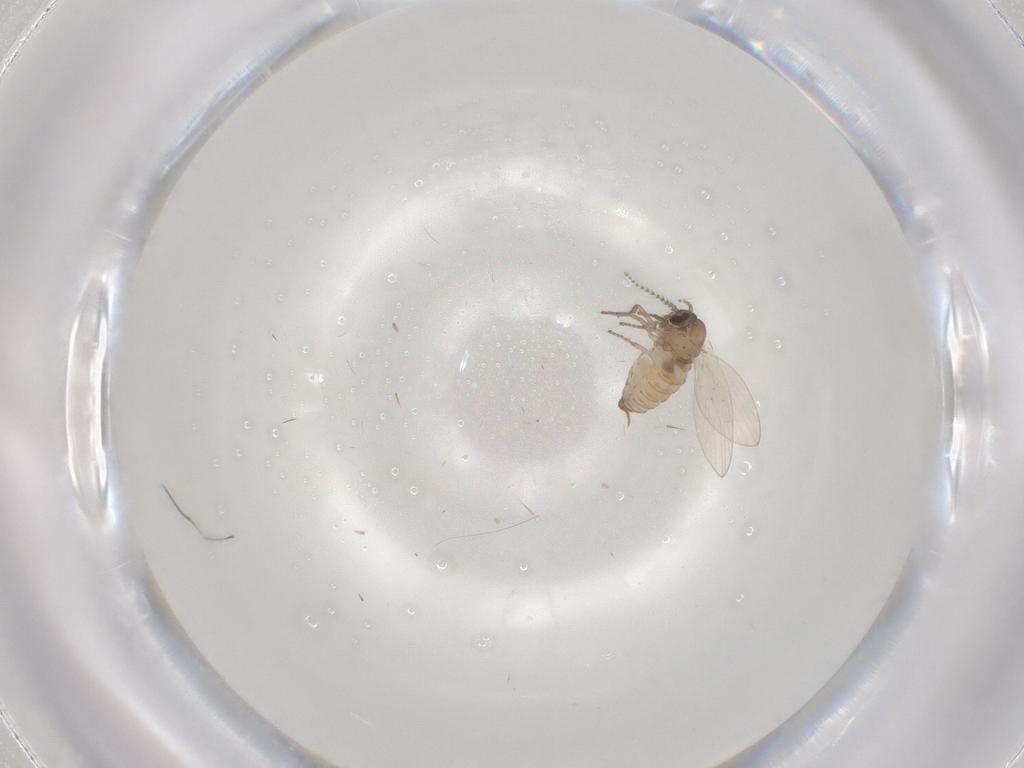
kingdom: Animalia
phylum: Arthropoda
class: Insecta
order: Diptera
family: Psychodidae
